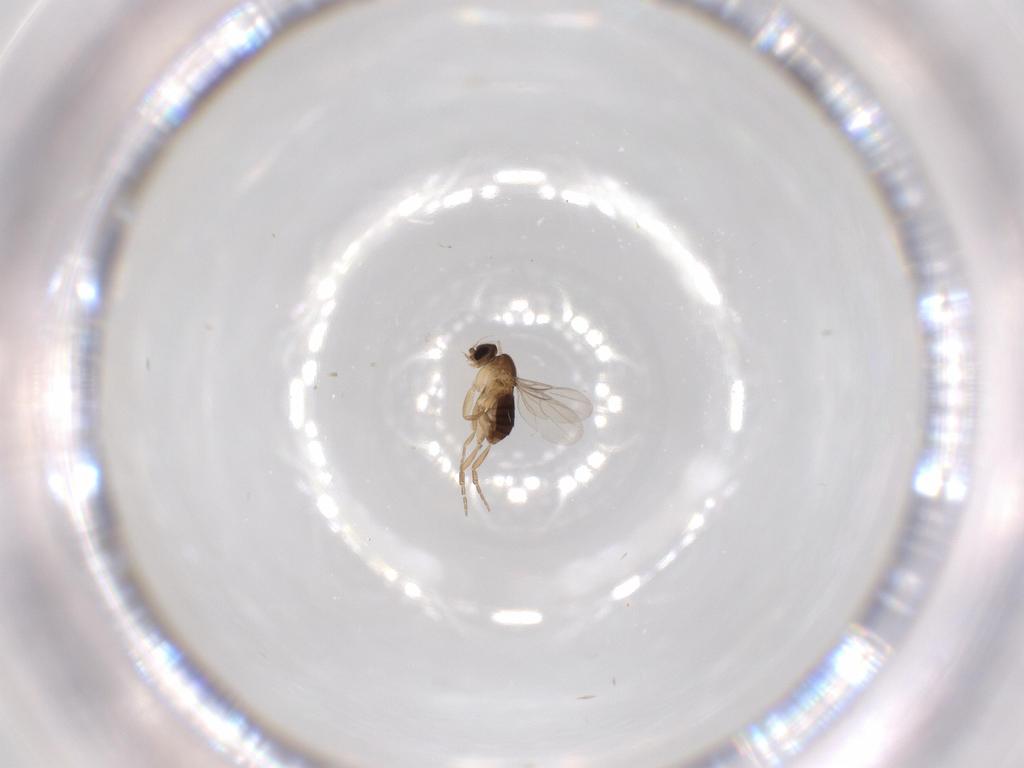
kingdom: Animalia
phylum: Arthropoda
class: Insecta
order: Diptera
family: Phoridae
